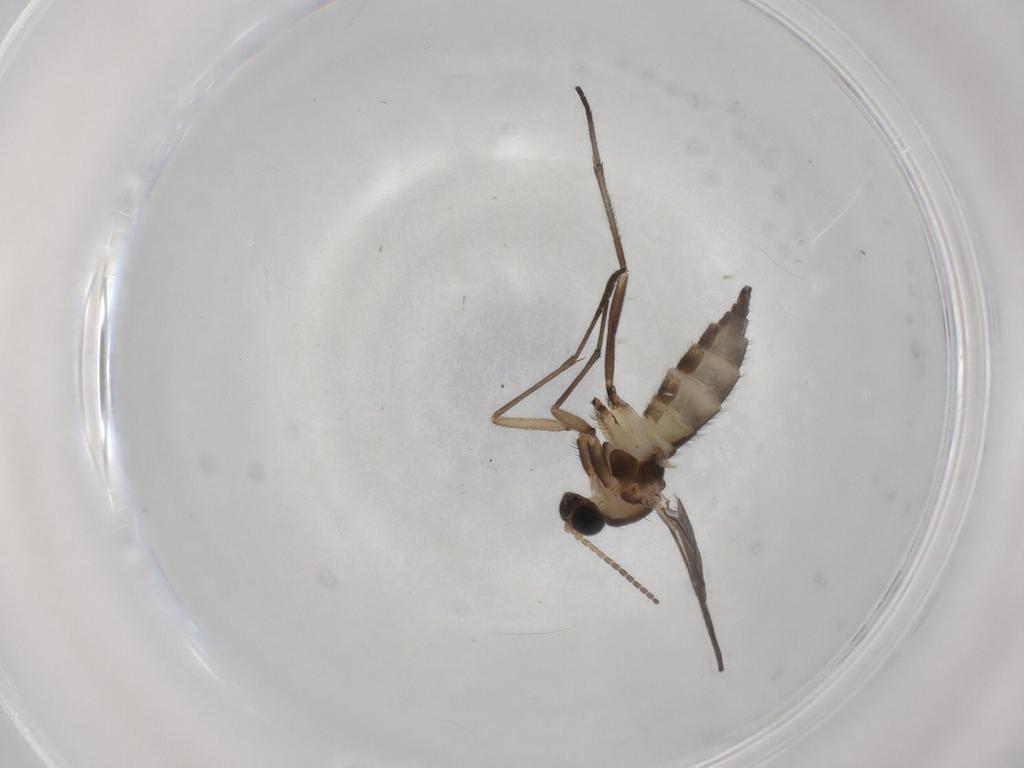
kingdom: Animalia
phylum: Arthropoda
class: Insecta
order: Diptera
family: Sciaridae
